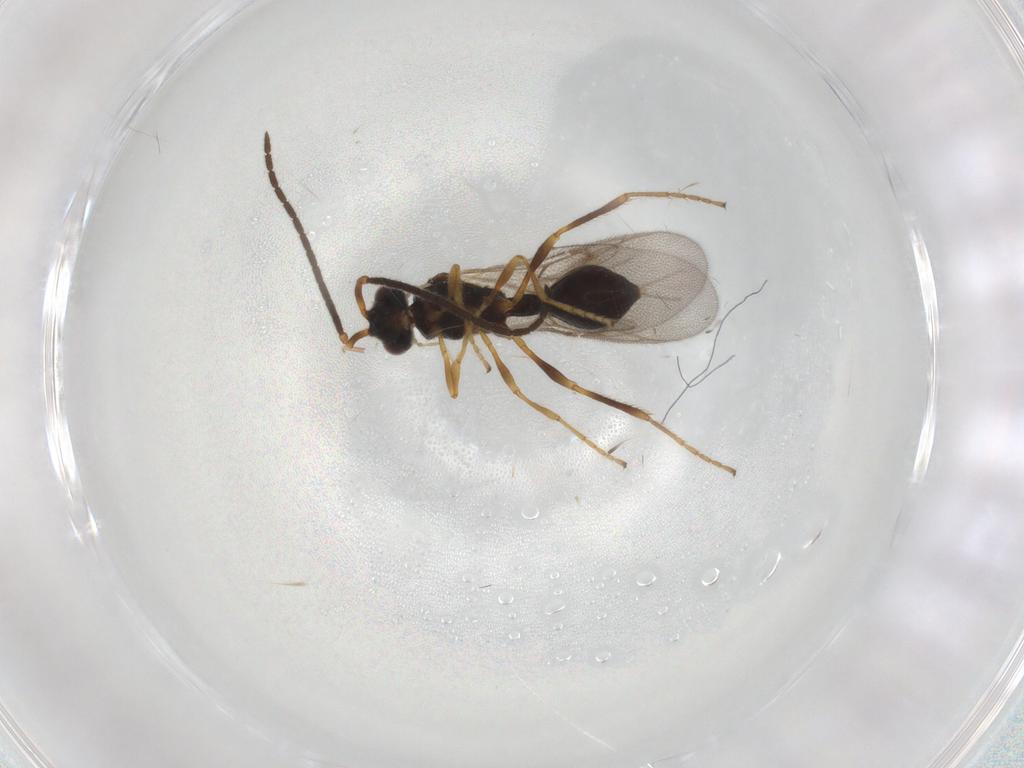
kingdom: Animalia
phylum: Arthropoda
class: Insecta
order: Hymenoptera
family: Diapriidae
